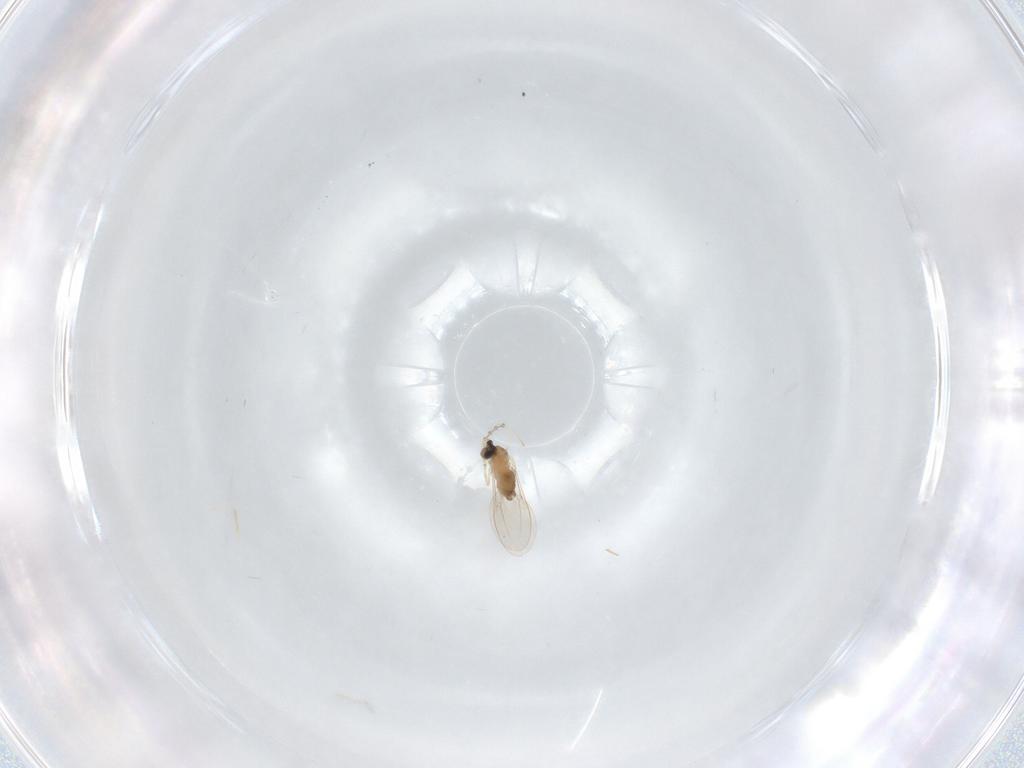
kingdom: Animalia
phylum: Arthropoda
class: Insecta
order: Diptera
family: Cecidomyiidae
